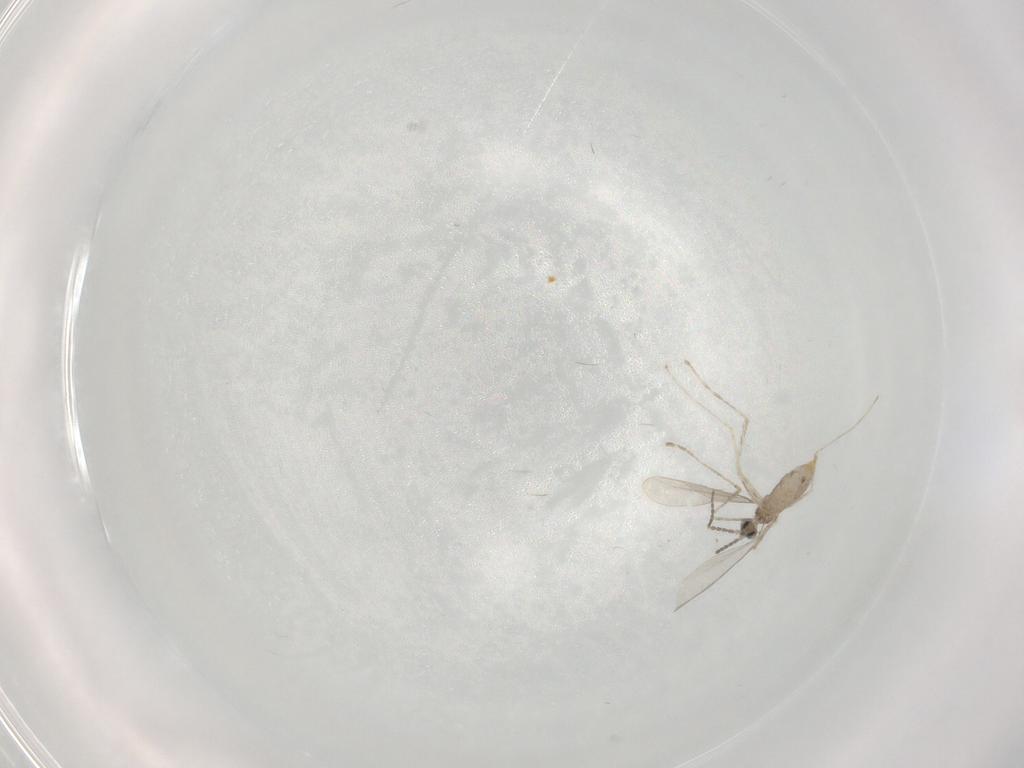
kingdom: Animalia
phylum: Arthropoda
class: Insecta
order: Diptera
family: Cecidomyiidae
